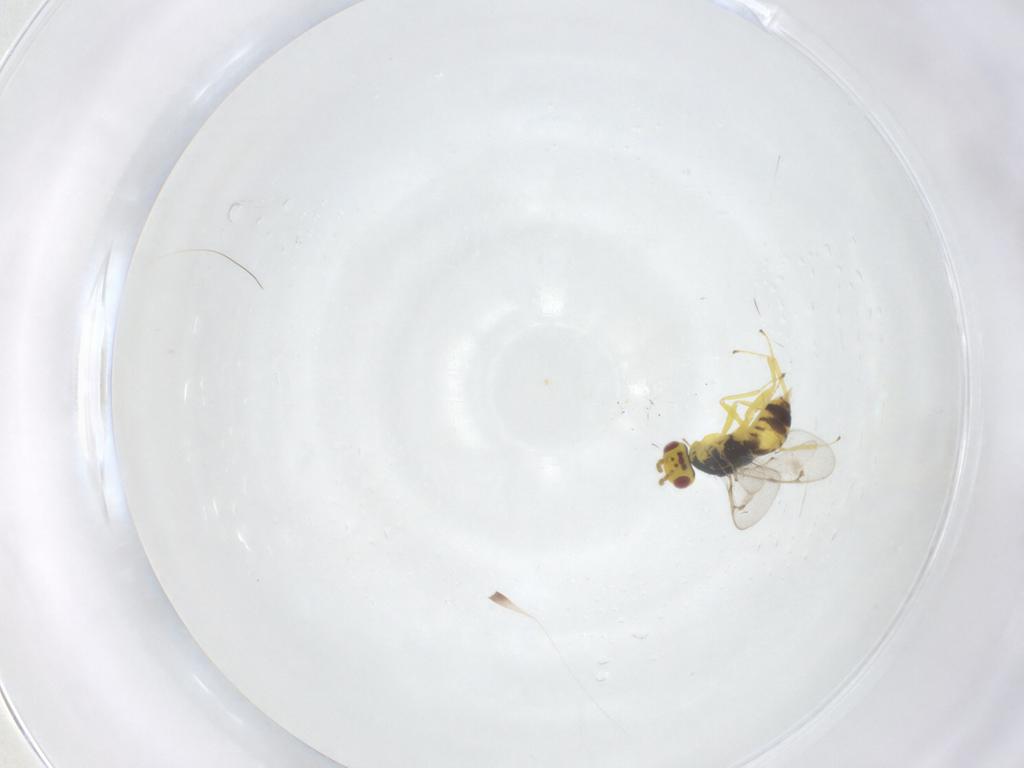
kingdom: Animalia
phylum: Arthropoda
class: Insecta
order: Hymenoptera
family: Eulophidae
